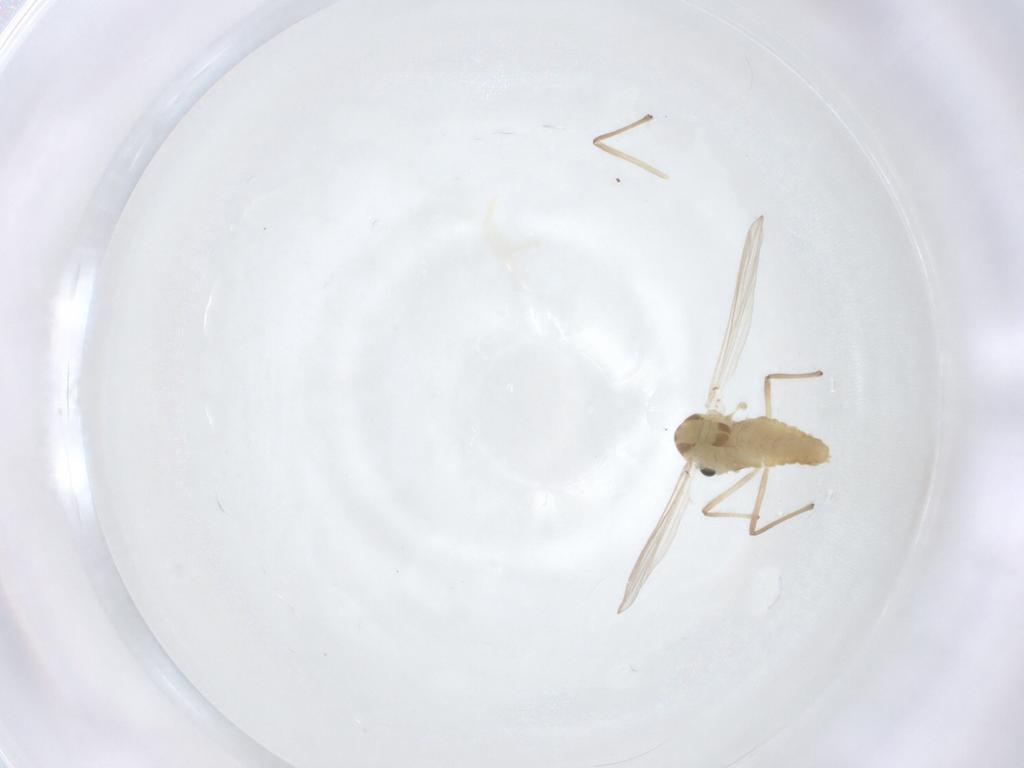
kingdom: Animalia
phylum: Arthropoda
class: Insecta
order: Diptera
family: Chironomidae
